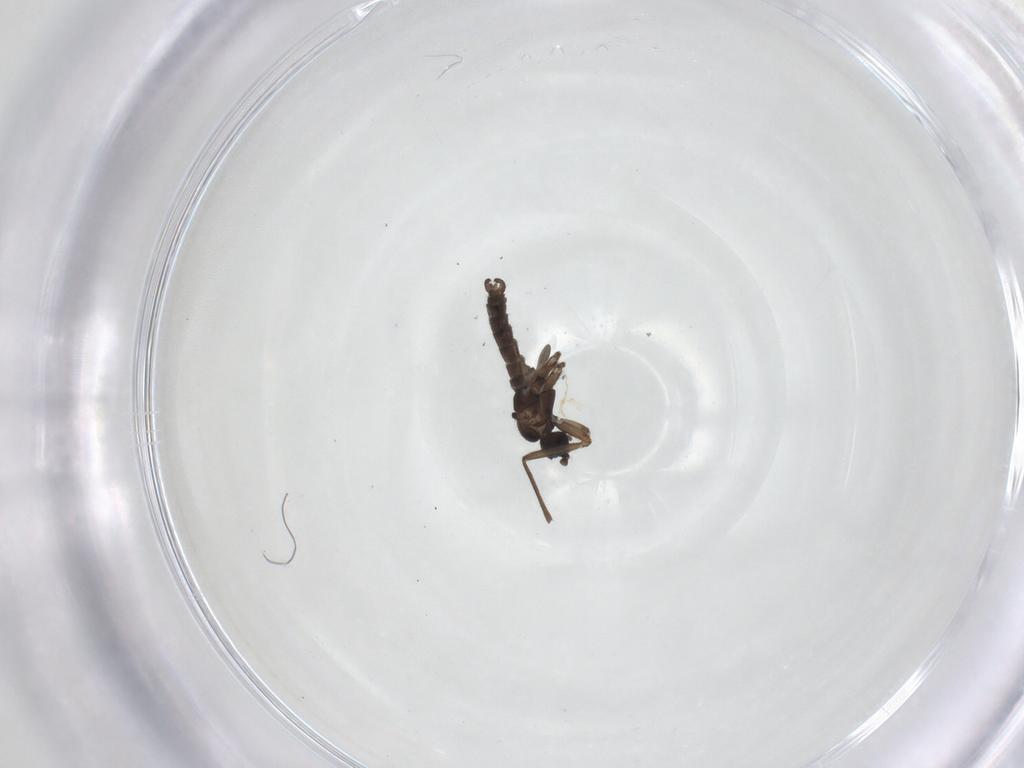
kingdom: Animalia
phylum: Arthropoda
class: Insecta
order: Diptera
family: Sciaridae
